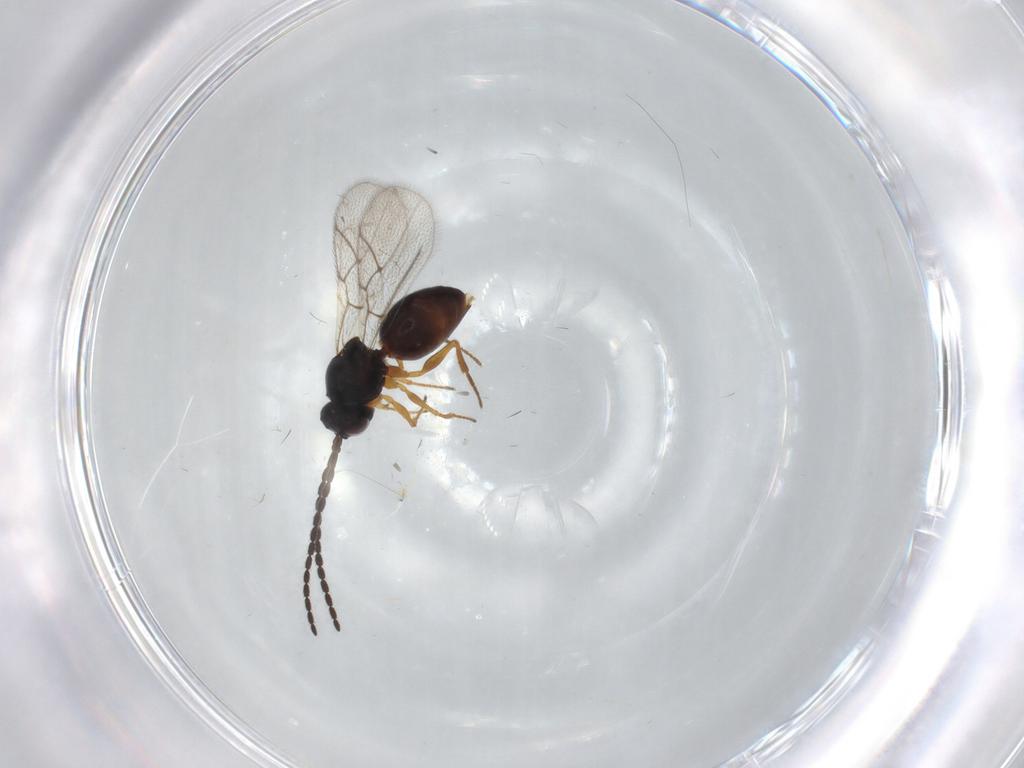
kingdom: Animalia
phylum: Arthropoda
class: Insecta
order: Hymenoptera
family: Figitidae
